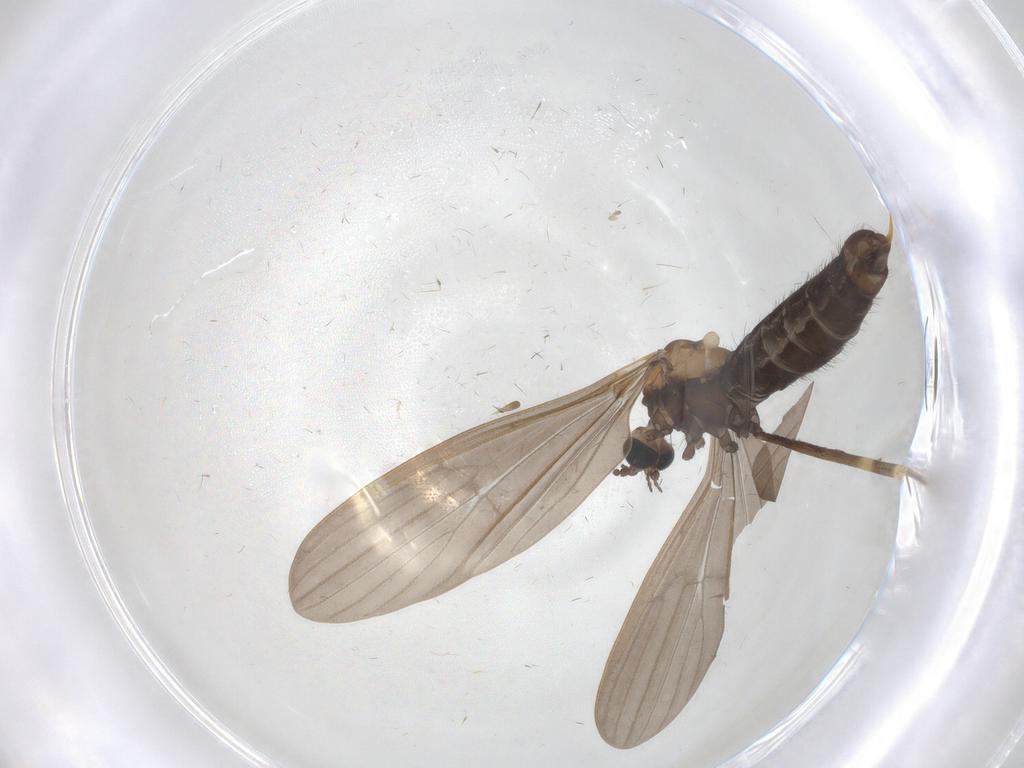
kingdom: Animalia
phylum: Arthropoda
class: Insecta
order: Diptera
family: Limoniidae
